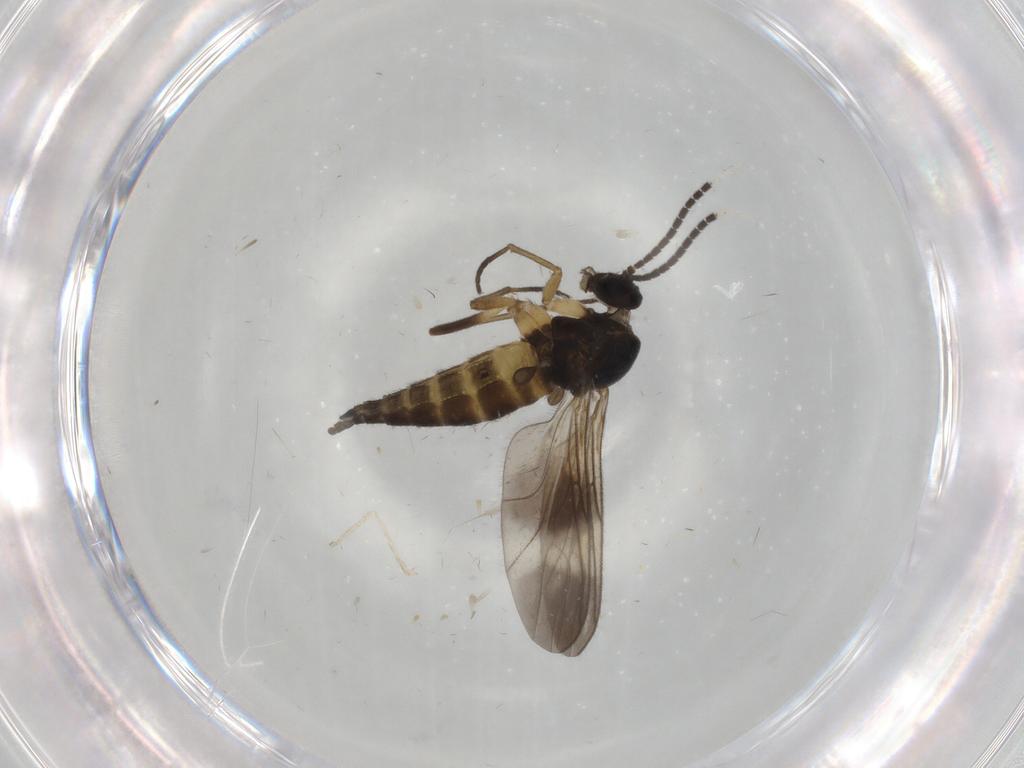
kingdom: Animalia
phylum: Arthropoda
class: Insecta
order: Diptera
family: Sciaridae
